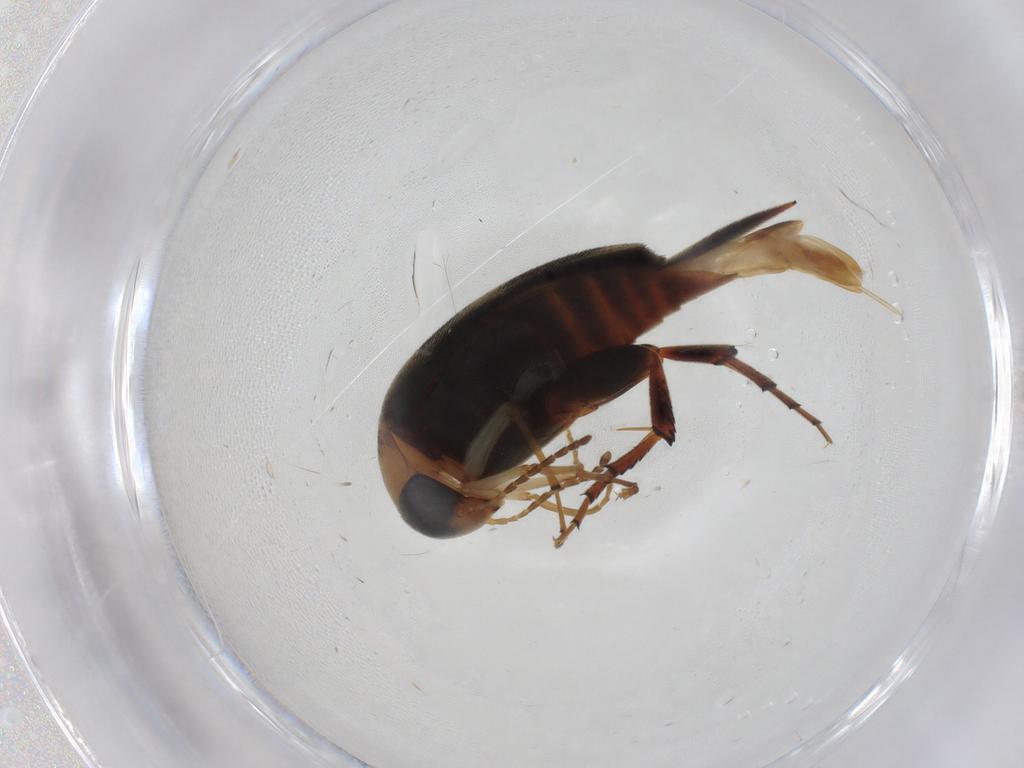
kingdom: Animalia
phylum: Arthropoda
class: Insecta
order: Coleoptera
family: Mordellidae
